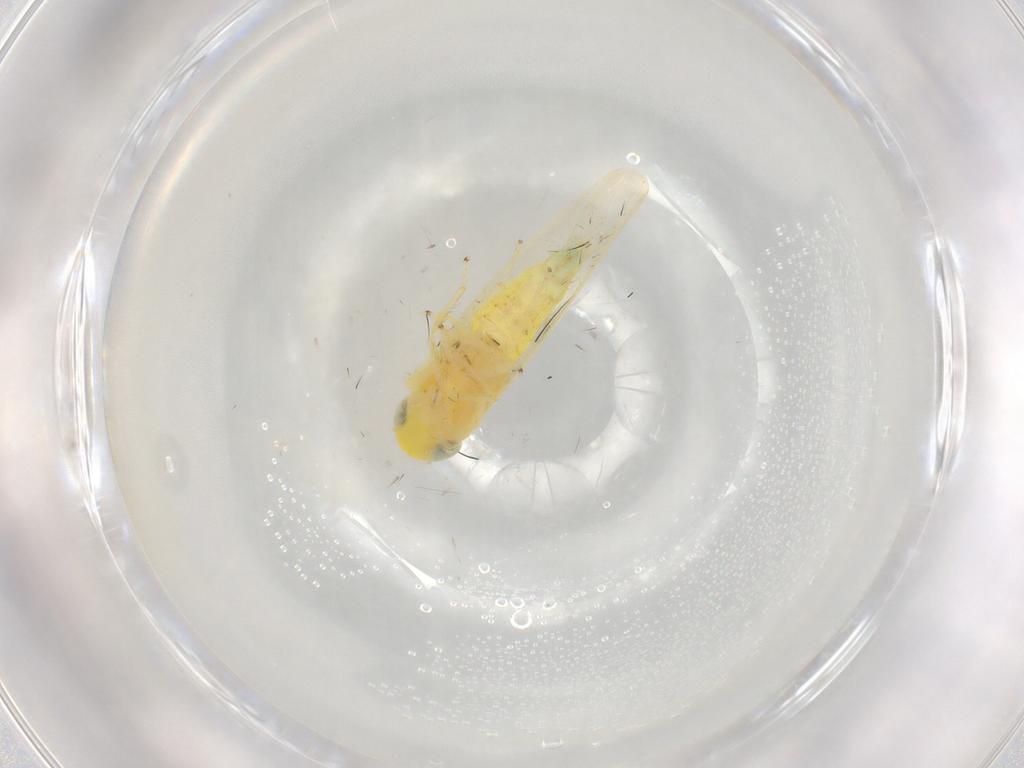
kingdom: Animalia
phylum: Arthropoda
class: Insecta
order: Hemiptera
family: Cicadellidae
